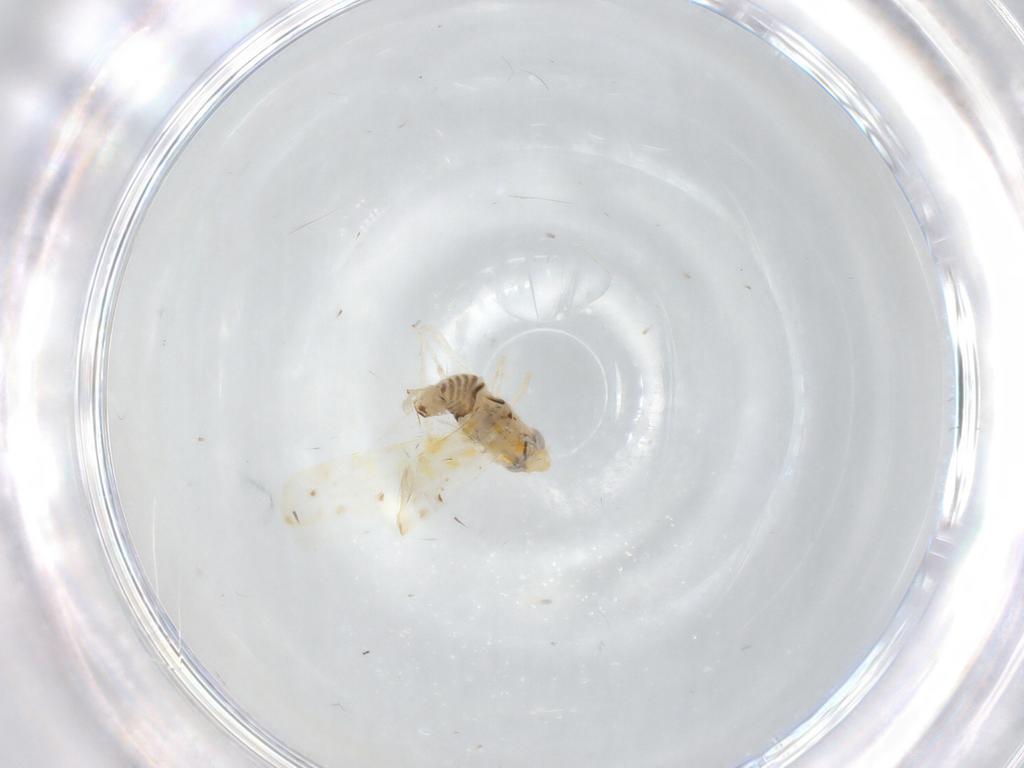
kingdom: Animalia
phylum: Arthropoda
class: Insecta
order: Hemiptera
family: Cicadellidae
